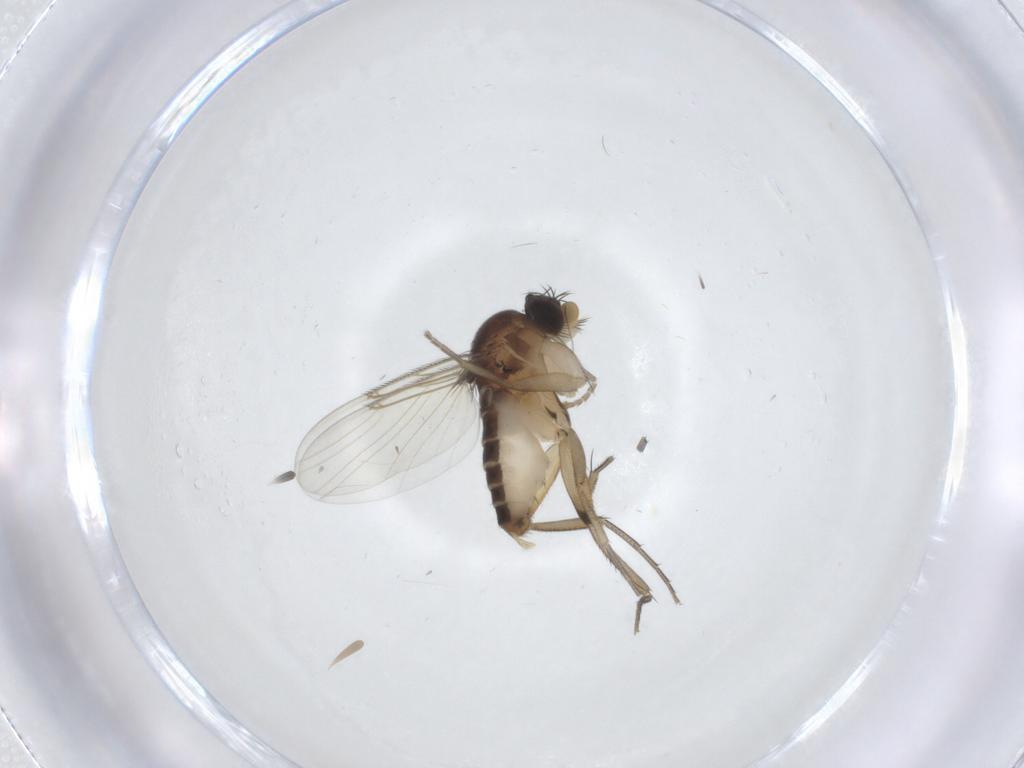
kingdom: Animalia
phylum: Arthropoda
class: Insecta
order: Diptera
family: Phoridae
